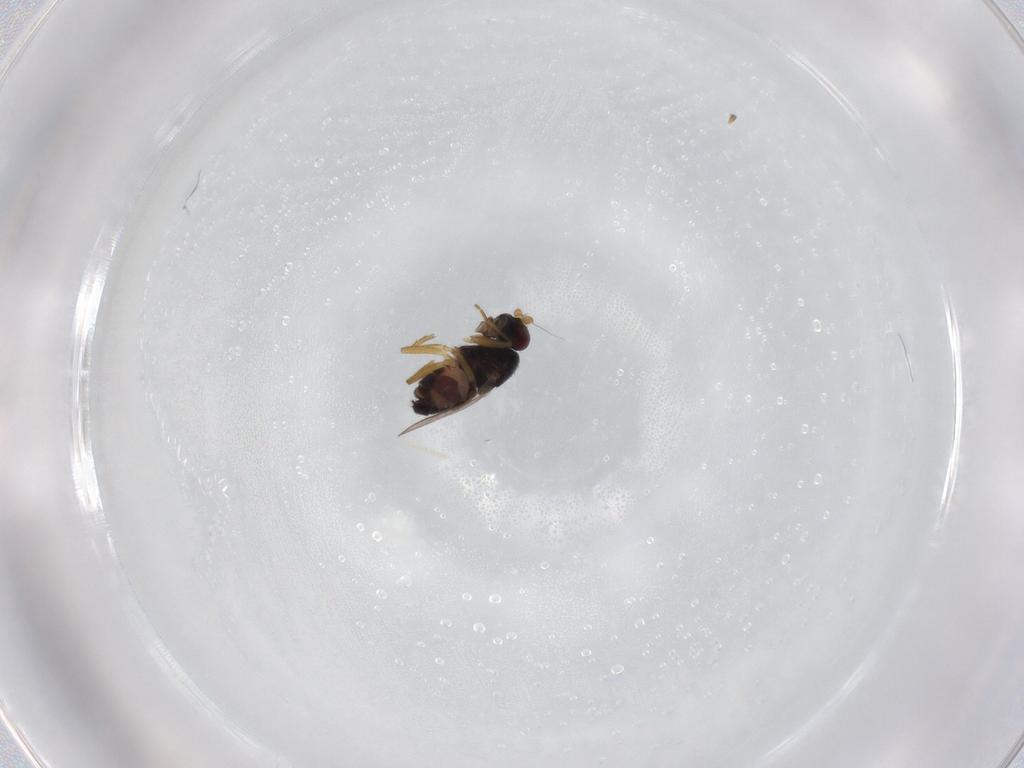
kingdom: Animalia
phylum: Arthropoda
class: Insecta
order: Diptera
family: Sphaeroceridae
